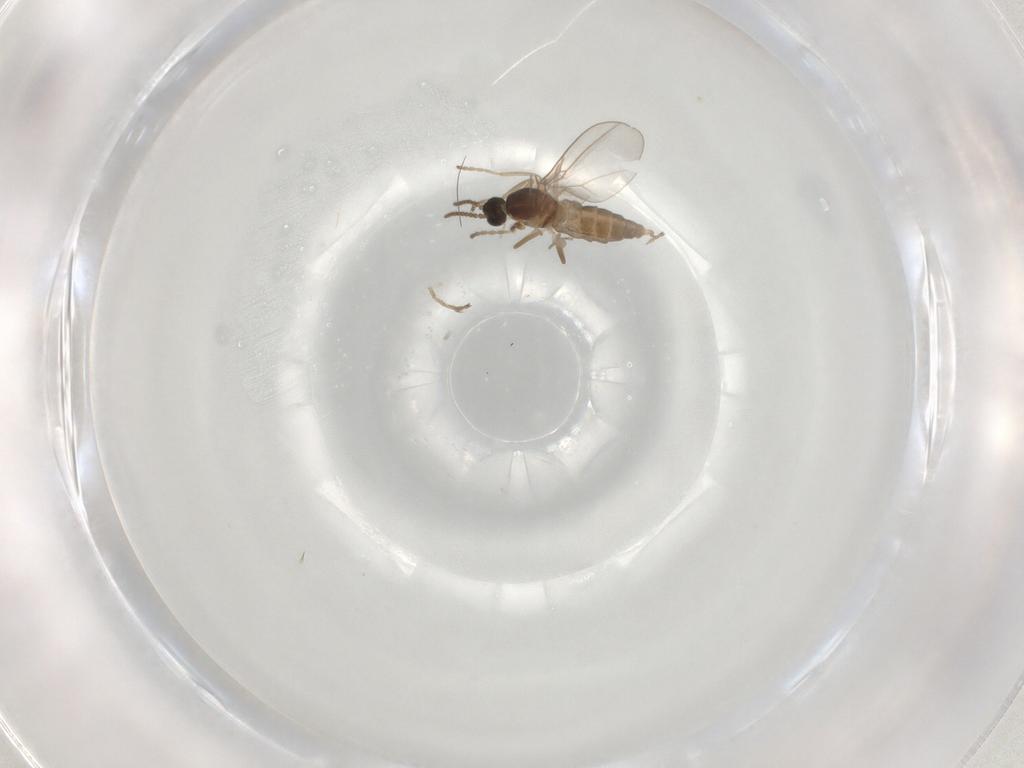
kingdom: Animalia
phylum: Arthropoda
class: Insecta
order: Diptera
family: Cecidomyiidae
